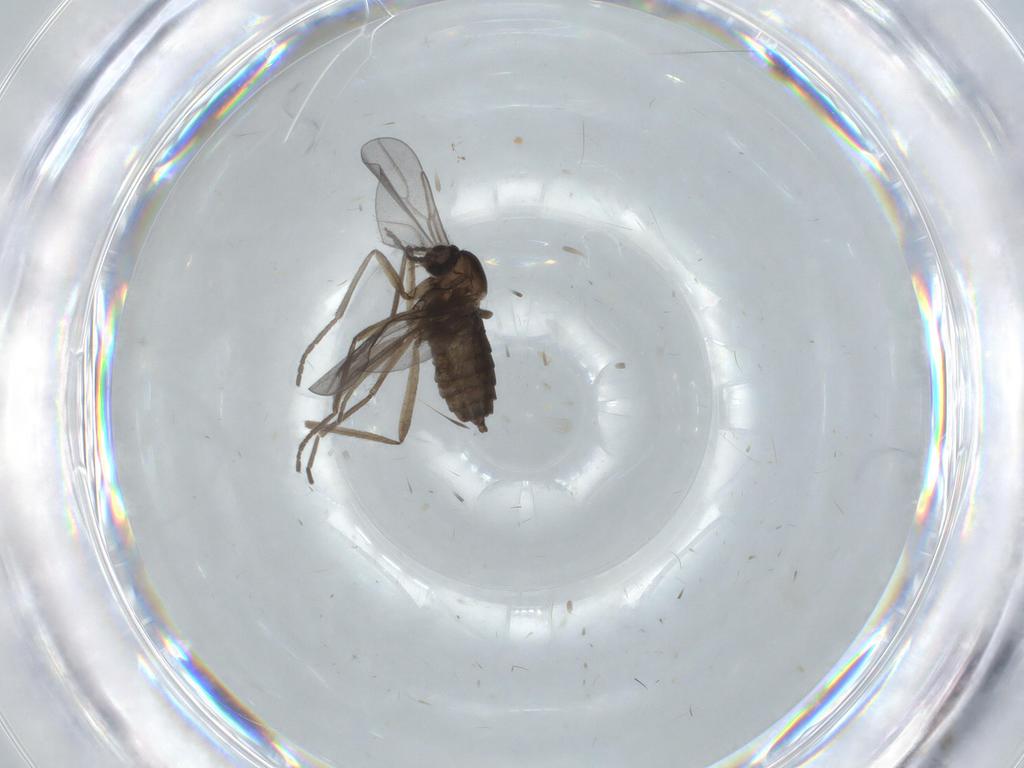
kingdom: Animalia
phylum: Arthropoda
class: Insecta
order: Diptera
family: Cecidomyiidae
